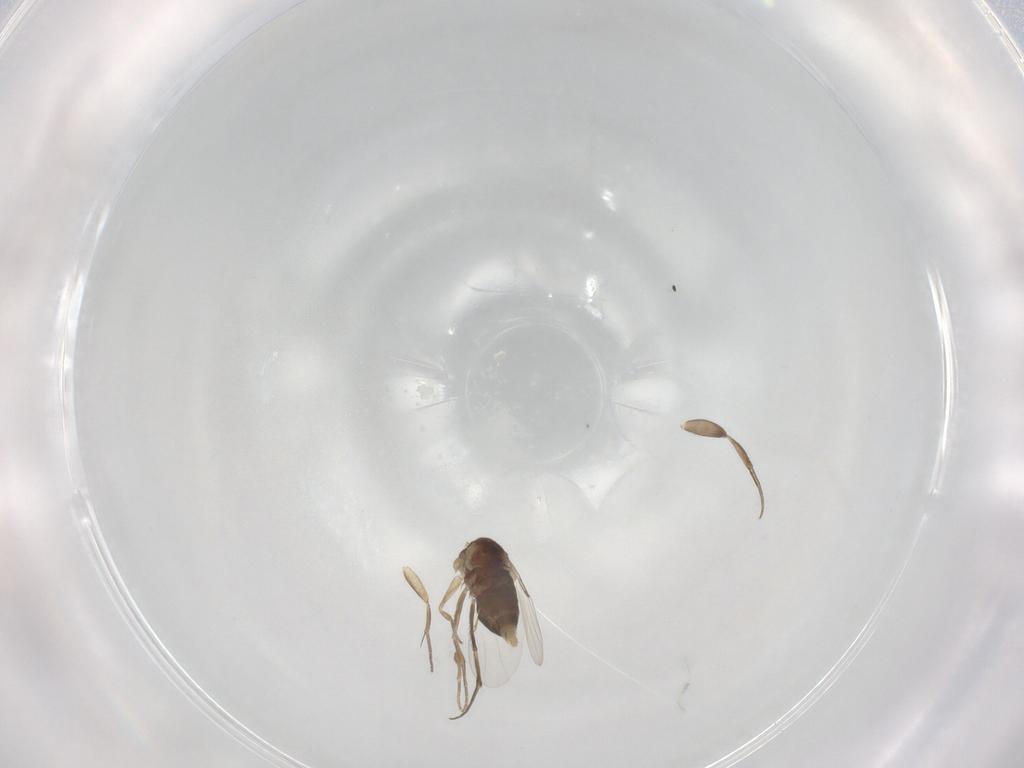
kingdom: Animalia
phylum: Arthropoda
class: Insecta
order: Diptera
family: Phoridae
